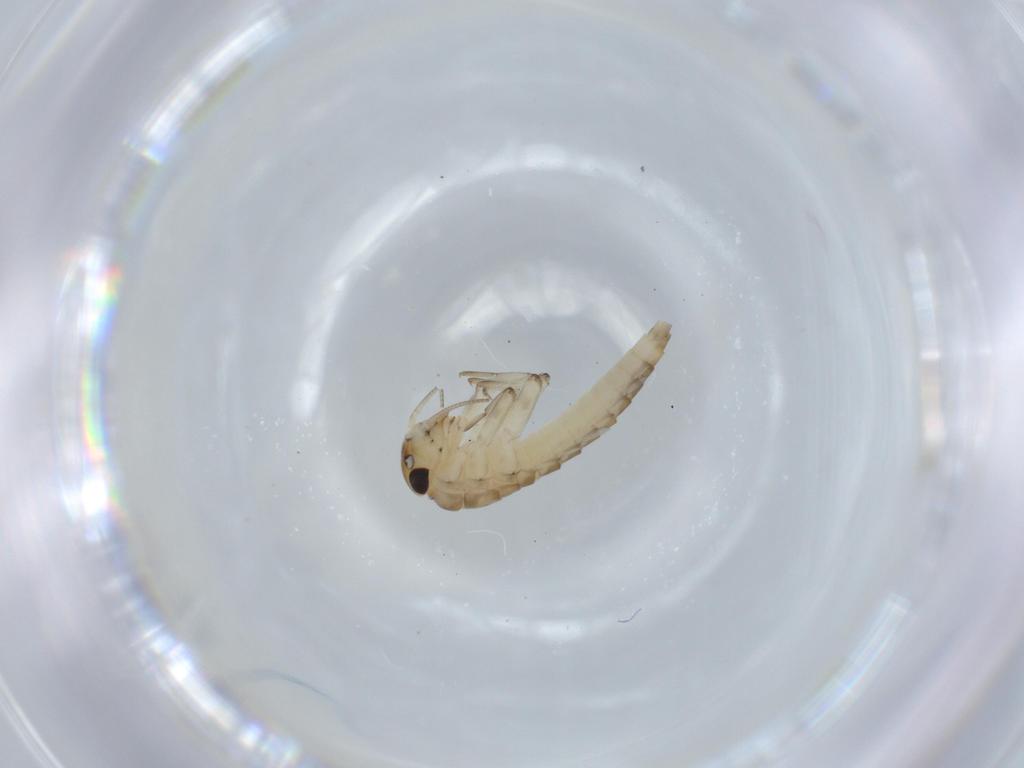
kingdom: Animalia
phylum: Arthropoda
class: Insecta
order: Ephemeroptera
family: Baetidae
